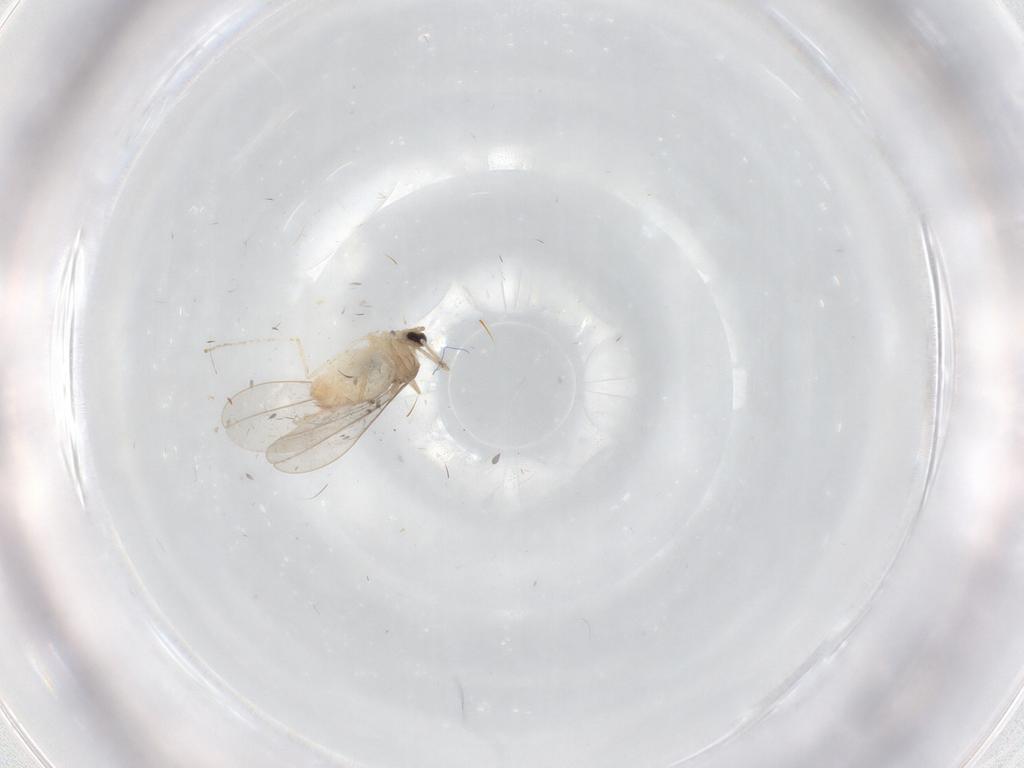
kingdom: Animalia
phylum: Arthropoda
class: Insecta
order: Diptera
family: Cecidomyiidae
